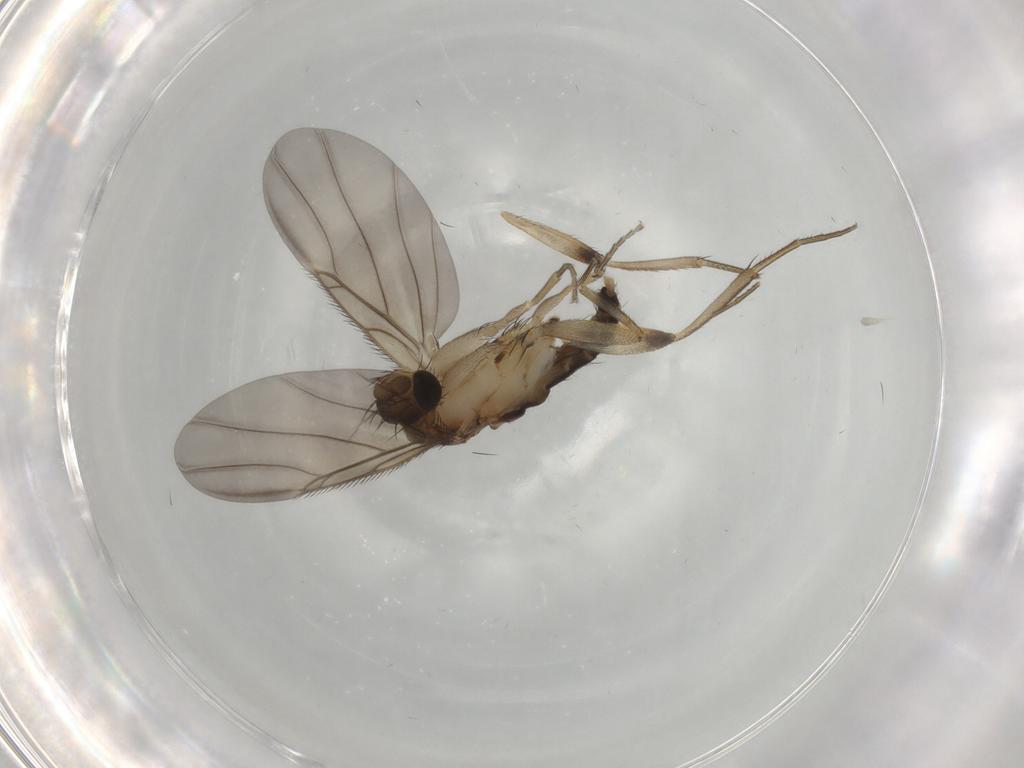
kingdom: Animalia
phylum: Arthropoda
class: Insecta
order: Diptera
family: Phoridae
